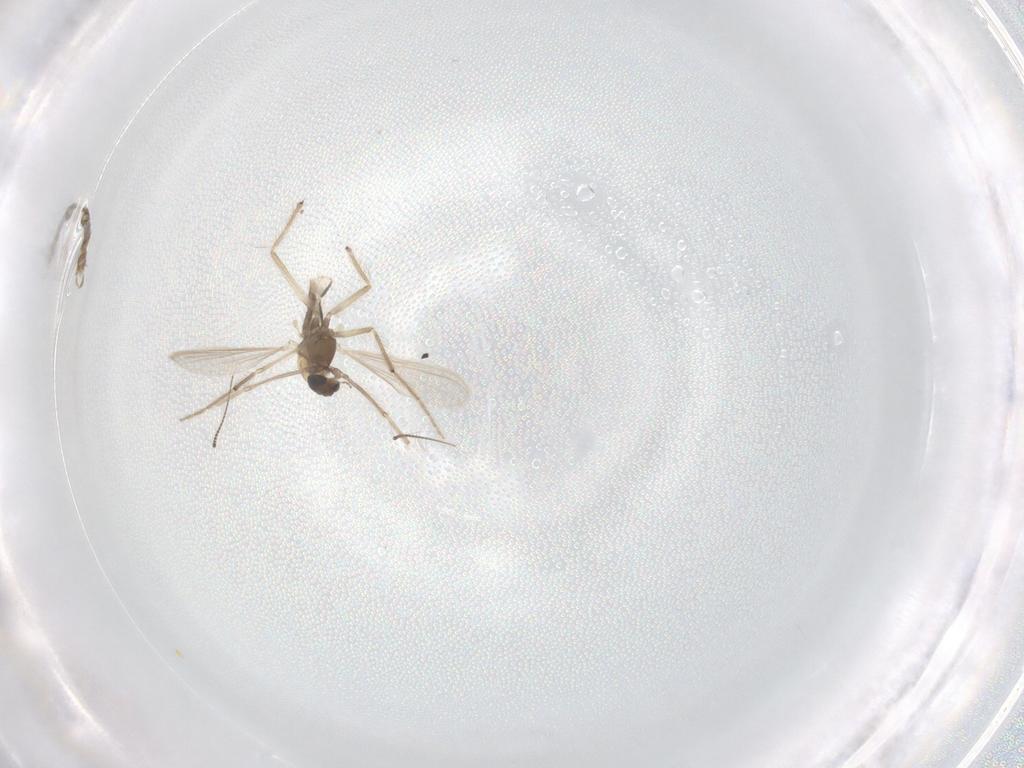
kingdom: Animalia
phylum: Arthropoda
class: Insecta
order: Diptera
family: Chironomidae
